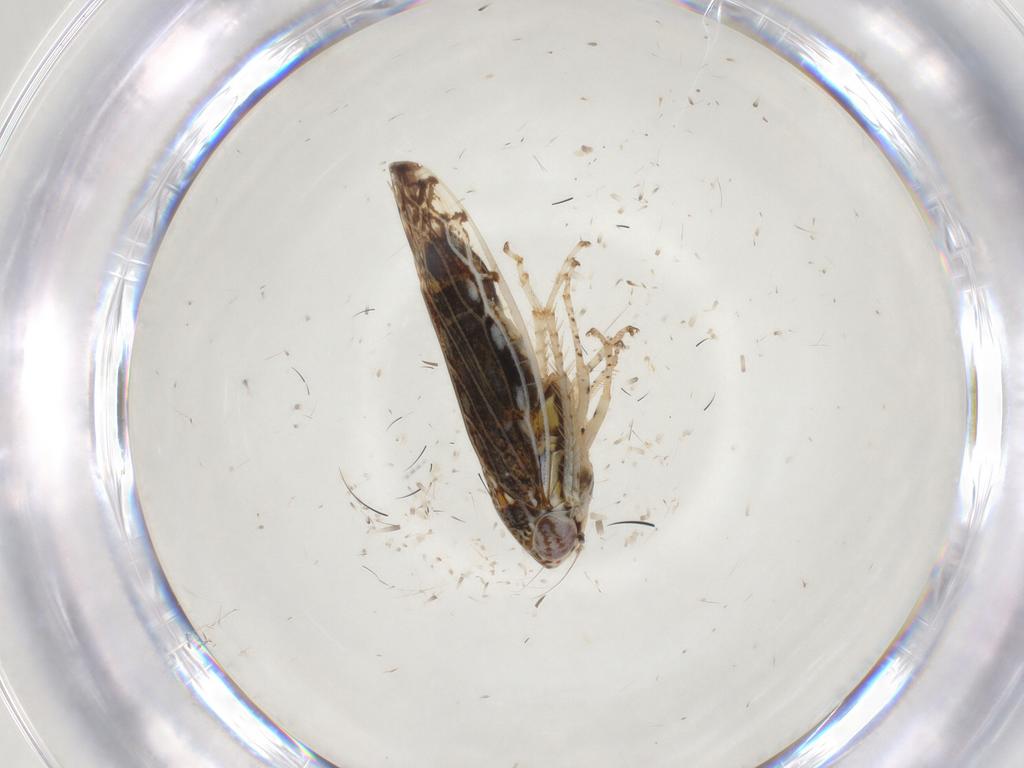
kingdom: Animalia
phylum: Arthropoda
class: Insecta
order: Hemiptera
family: Cicadellidae
